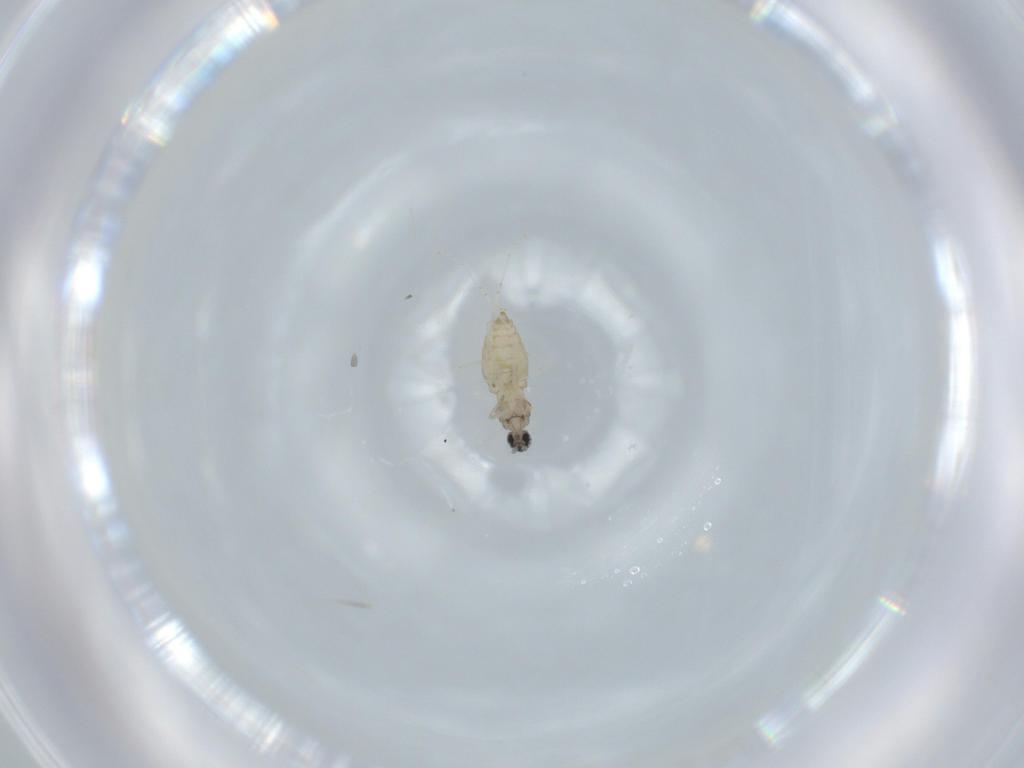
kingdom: Animalia
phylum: Arthropoda
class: Insecta
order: Diptera
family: Cecidomyiidae
